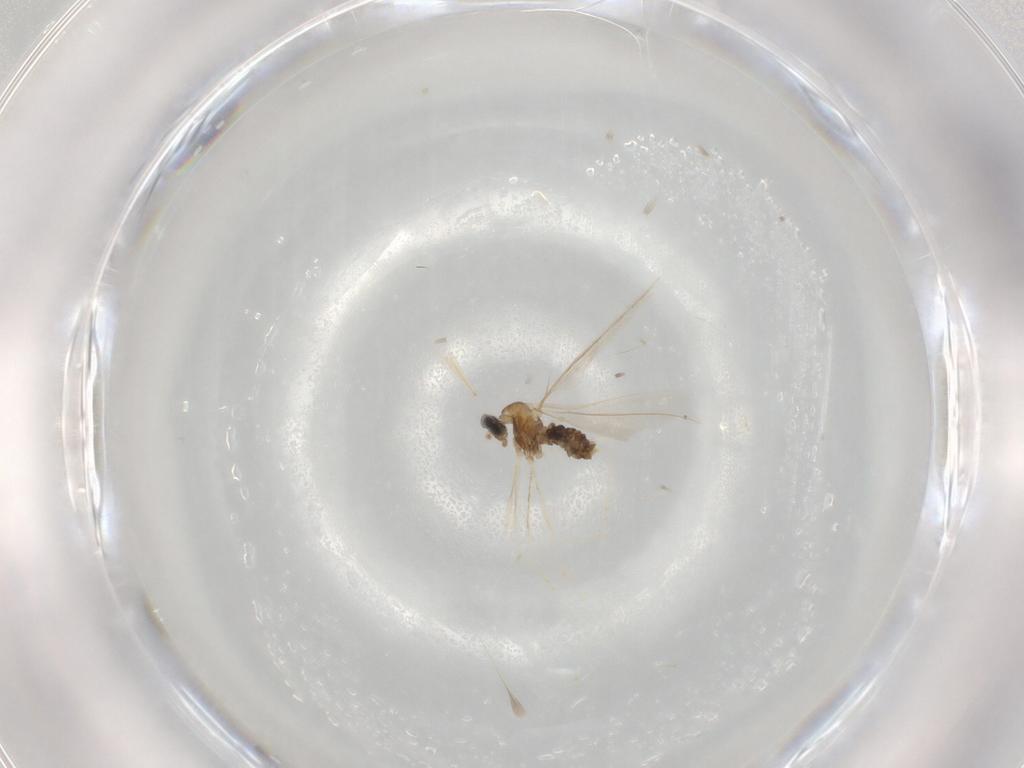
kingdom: Animalia
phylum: Arthropoda
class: Insecta
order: Diptera
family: Cecidomyiidae
